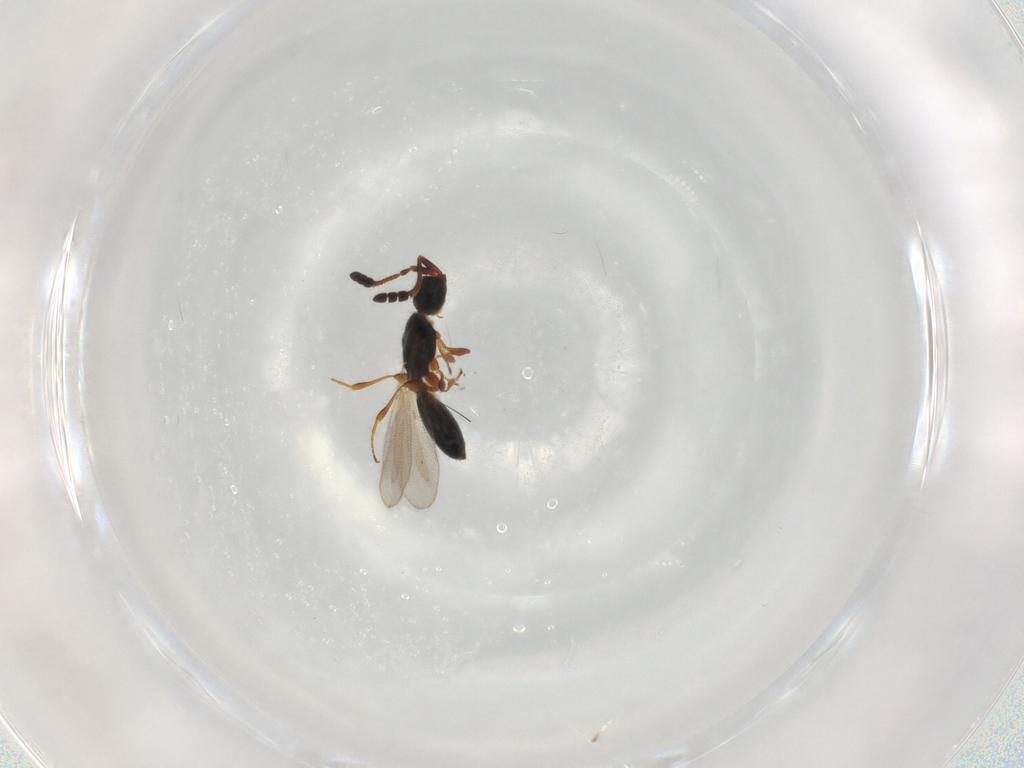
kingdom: Animalia
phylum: Arthropoda
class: Insecta
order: Hymenoptera
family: Diapriidae
